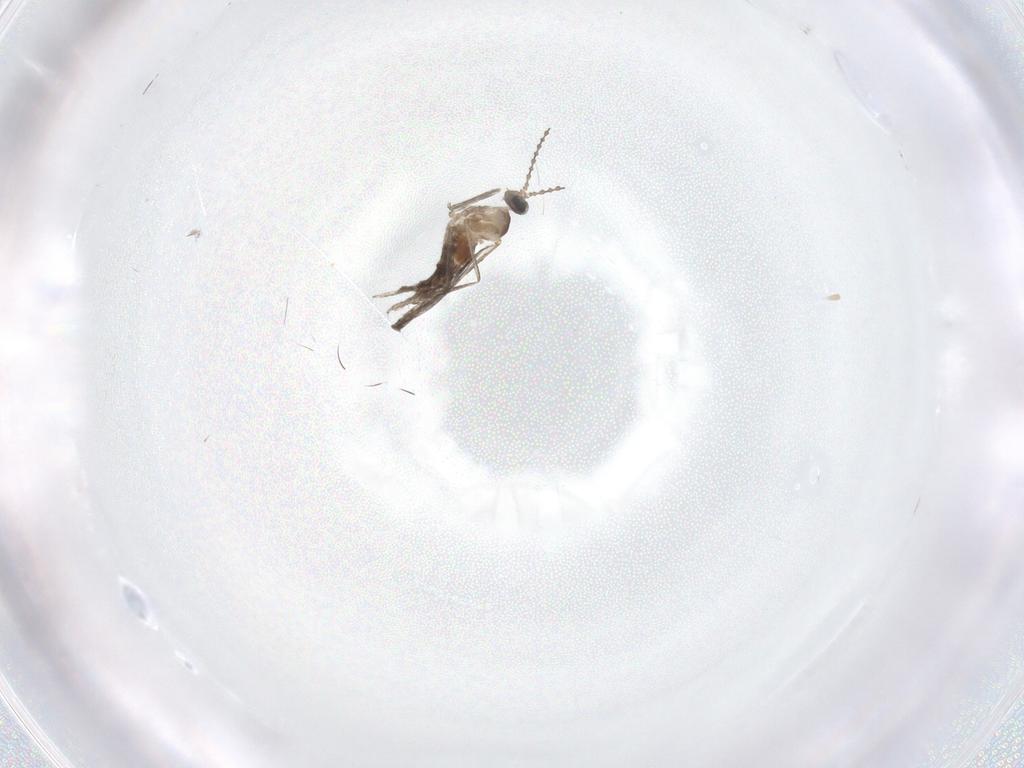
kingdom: Animalia
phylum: Arthropoda
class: Insecta
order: Diptera
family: Cecidomyiidae
